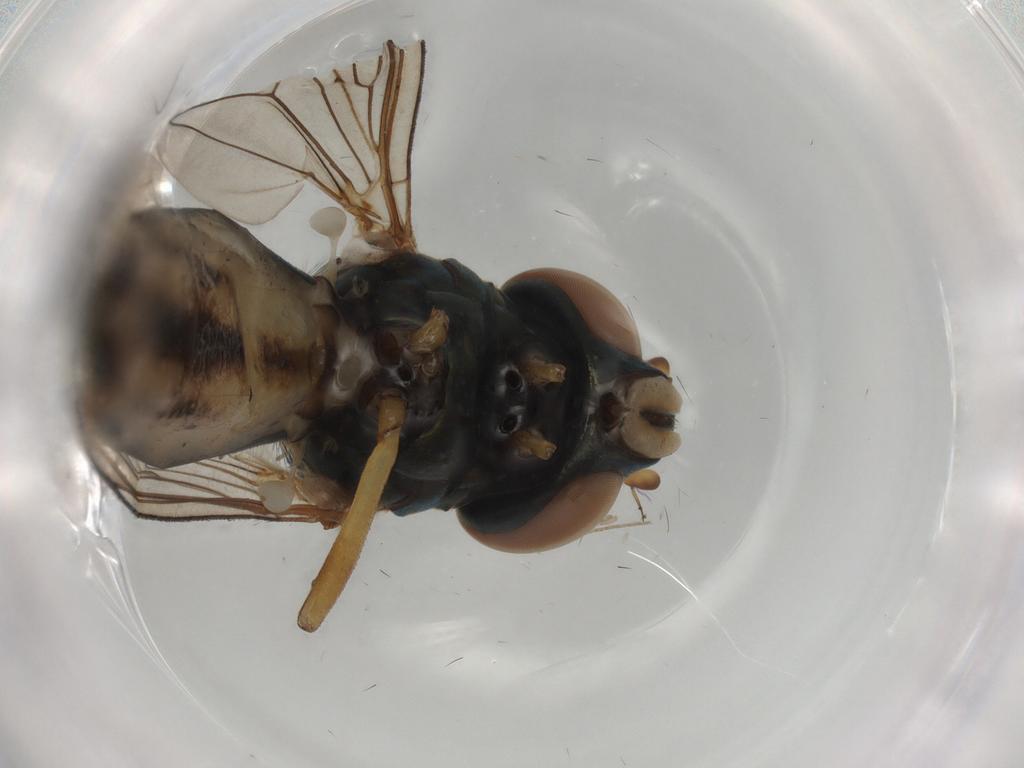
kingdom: Animalia
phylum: Arthropoda
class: Insecta
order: Diptera
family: Syrphidae
